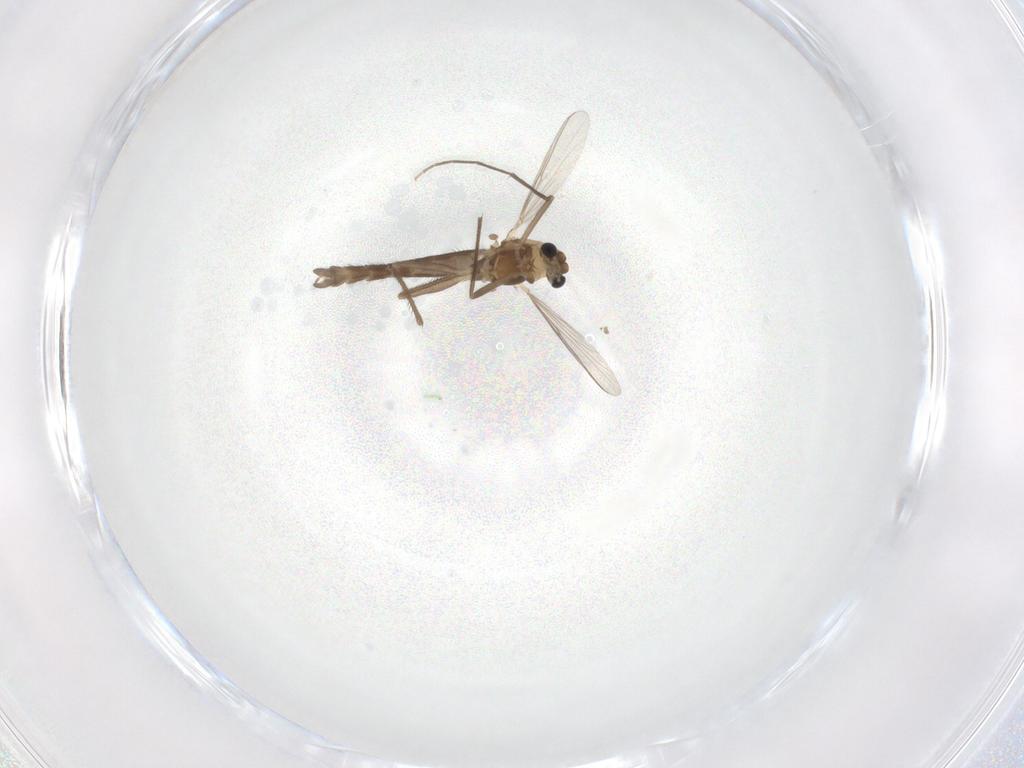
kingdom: Animalia
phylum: Arthropoda
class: Insecta
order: Diptera
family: Chironomidae
